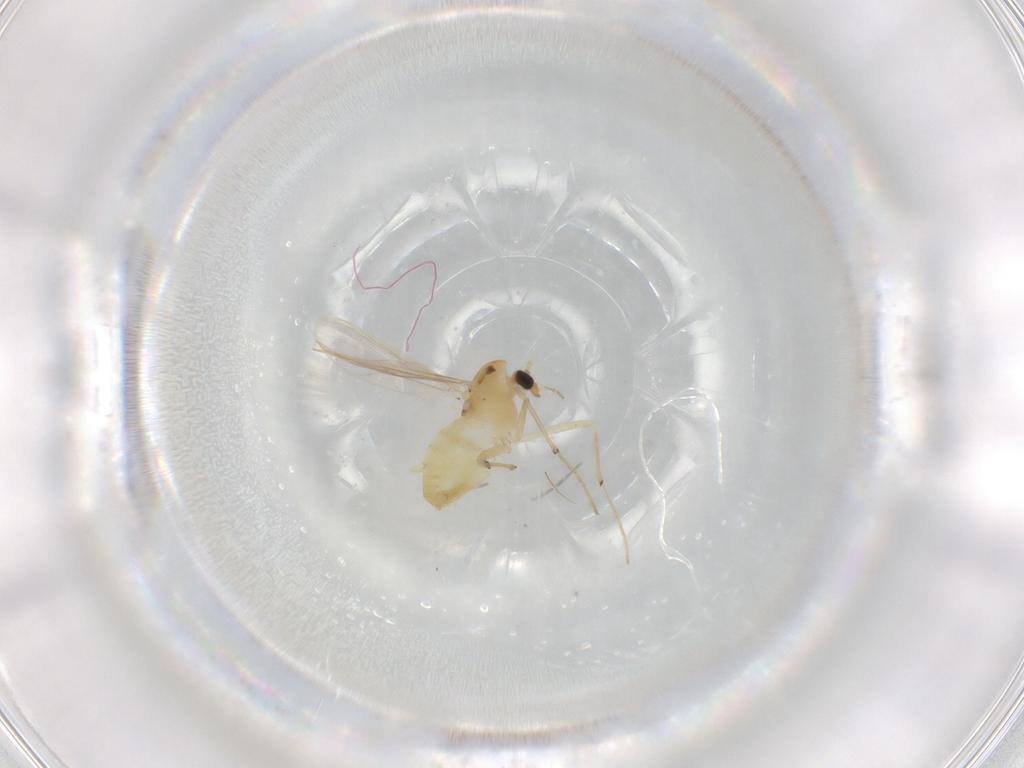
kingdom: Animalia
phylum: Arthropoda
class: Insecta
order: Diptera
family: Chironomidae
